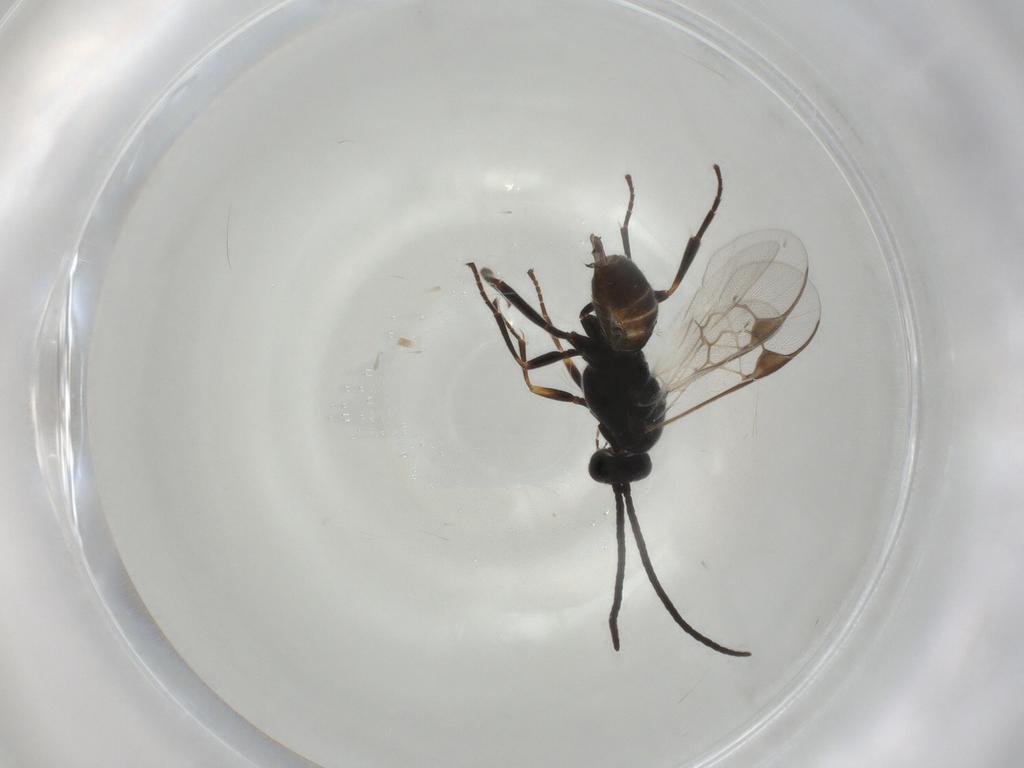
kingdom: Animalia
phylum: Arthropoda
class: Insecta
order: Hymenoptera
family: Braconidae
